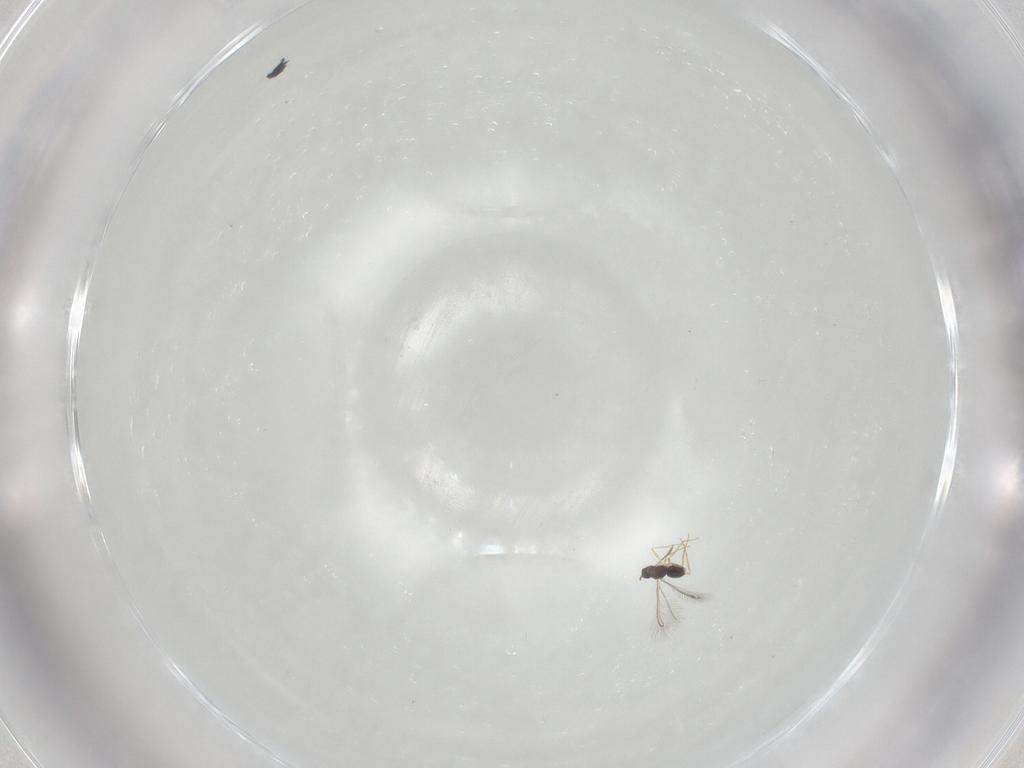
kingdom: Animalia
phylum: Arthropoda
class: Insecta
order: Hymenoptera
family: Mymaridae
